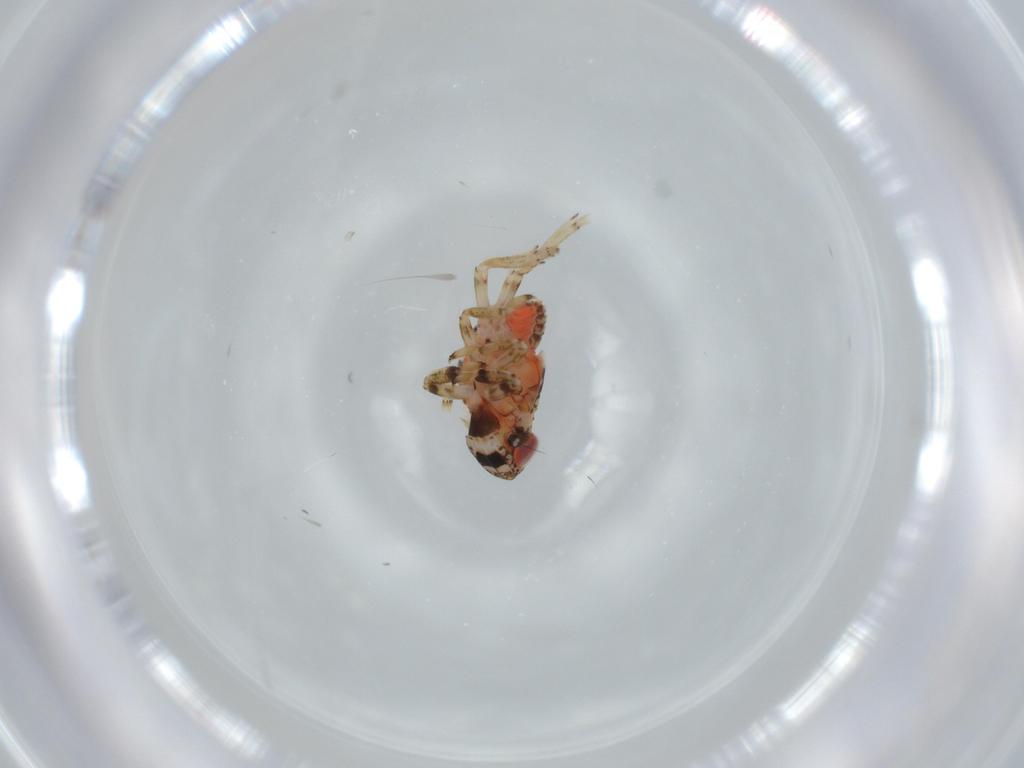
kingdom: Animalia
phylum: Arthropoda
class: Insecta
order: Hemiptera
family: Issidae
